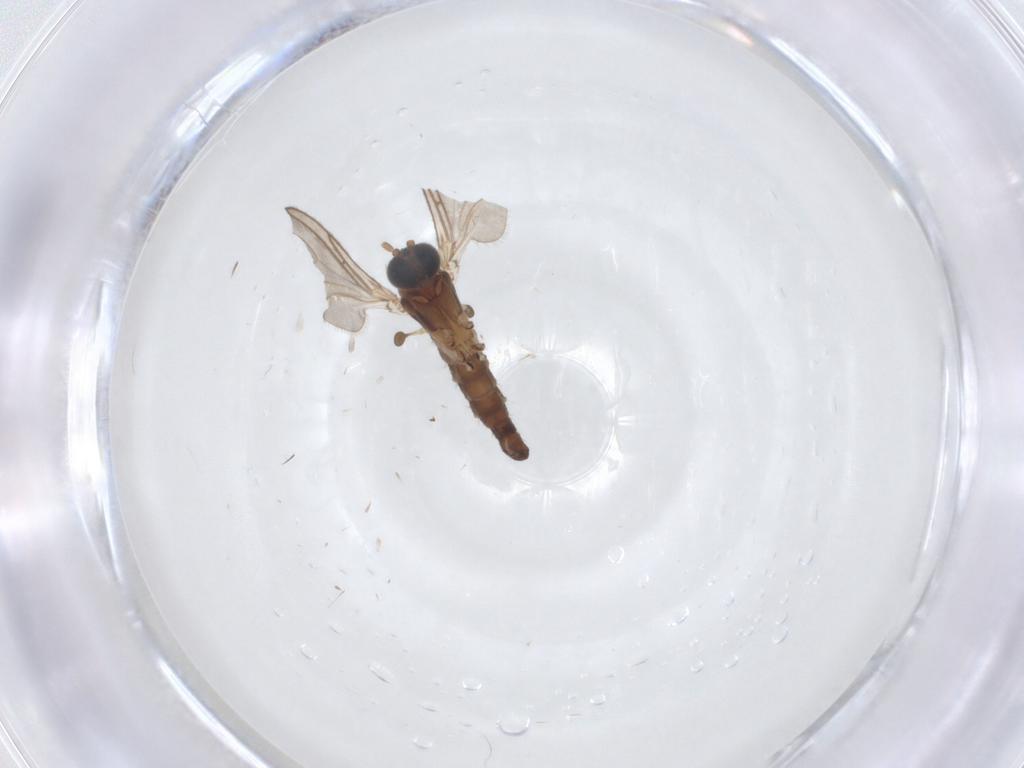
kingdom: Animalia
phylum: Arthropoda
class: Insecta
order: Diptera
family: Sciaridae
